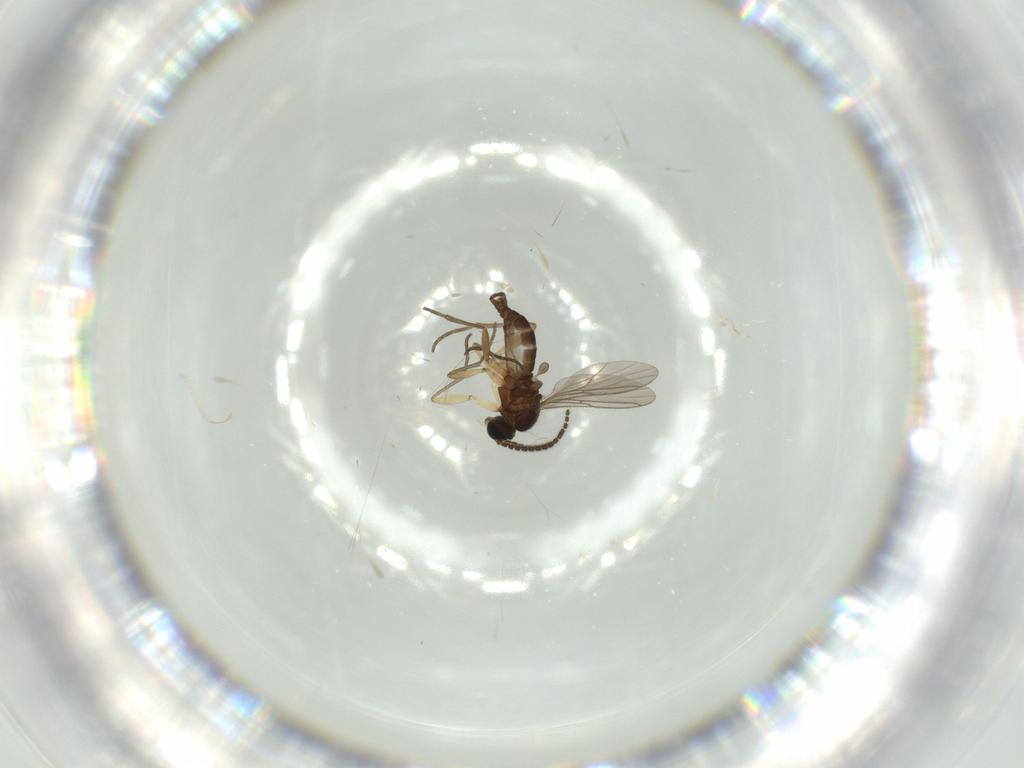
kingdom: Animalia
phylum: Arthropoda
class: Insecta
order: Diptera
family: Sciaridae
